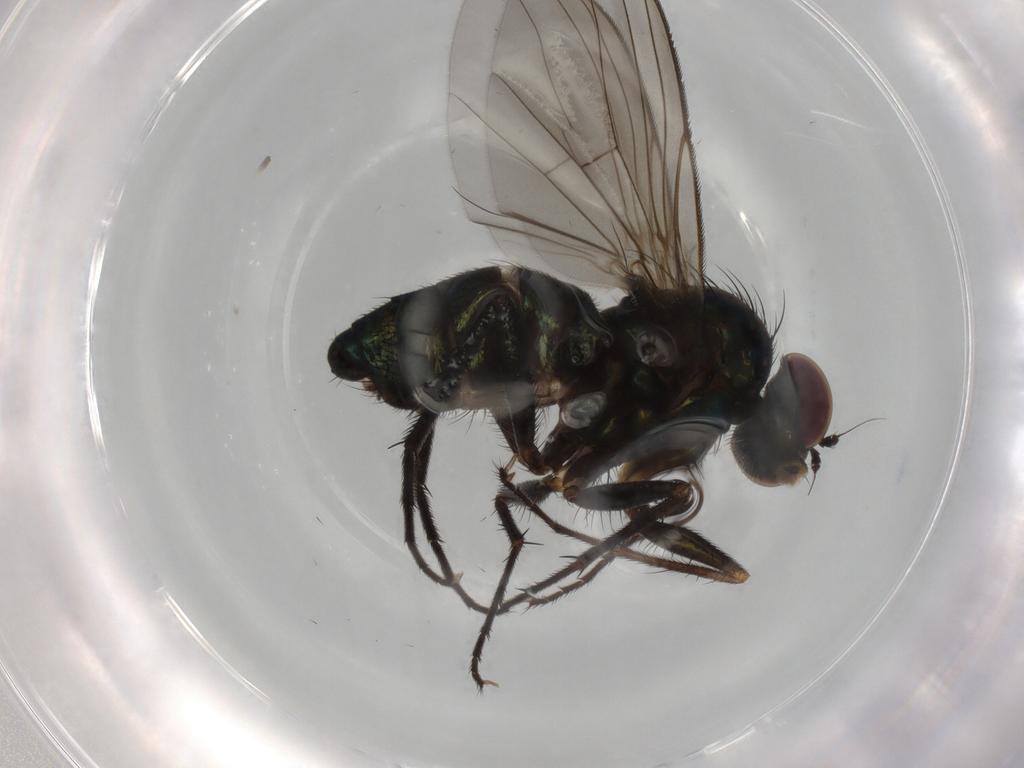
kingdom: Animalia
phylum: Arthropoda
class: Insecta
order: Diptera
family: Dolichopodidae
